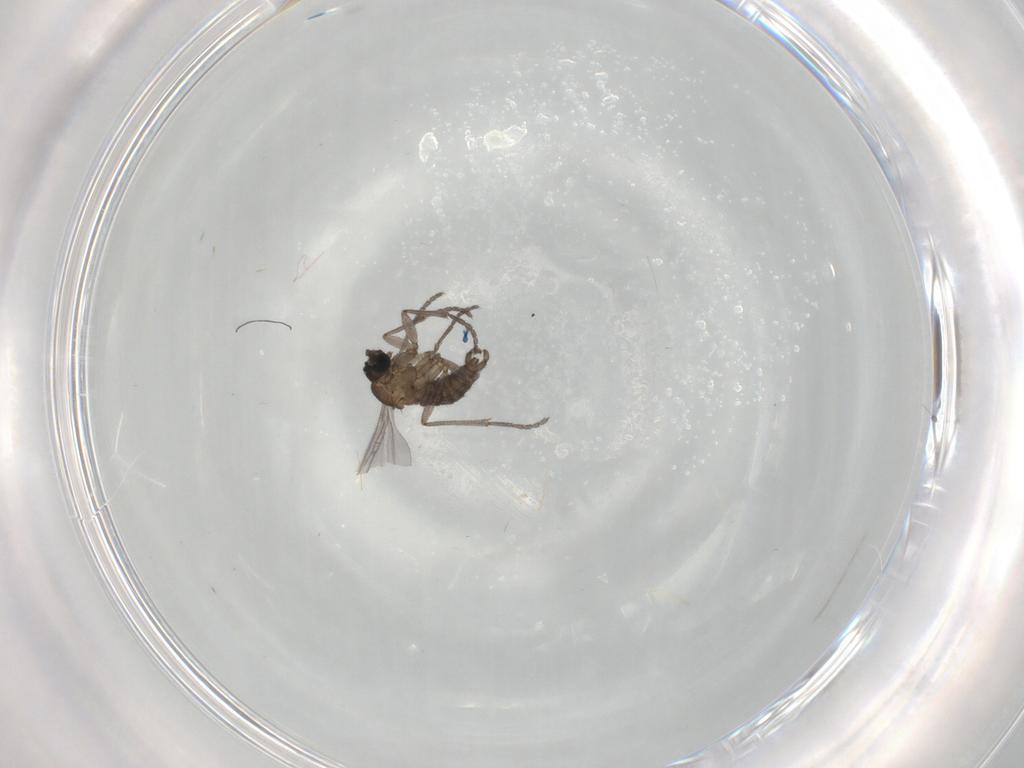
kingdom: Animalia
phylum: Arthropoda
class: Insecta
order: Diptera
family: Sciaridae
